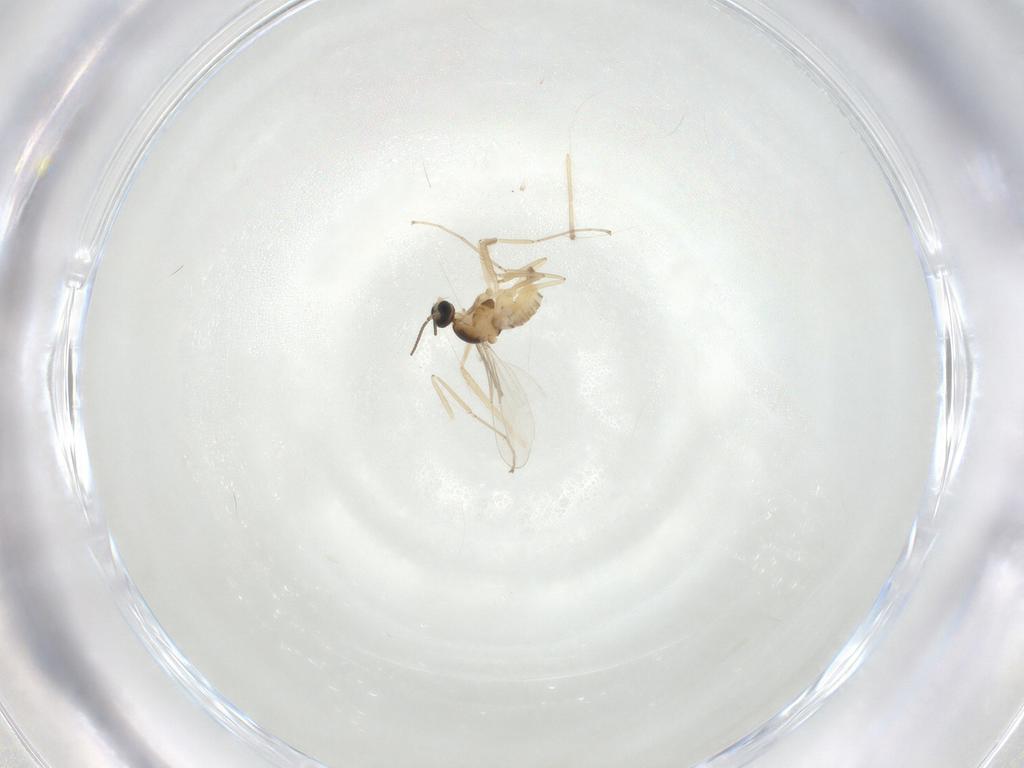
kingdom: Animalia
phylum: Arthropoda
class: Insecta
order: Diptera
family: Cecidomyiidae
